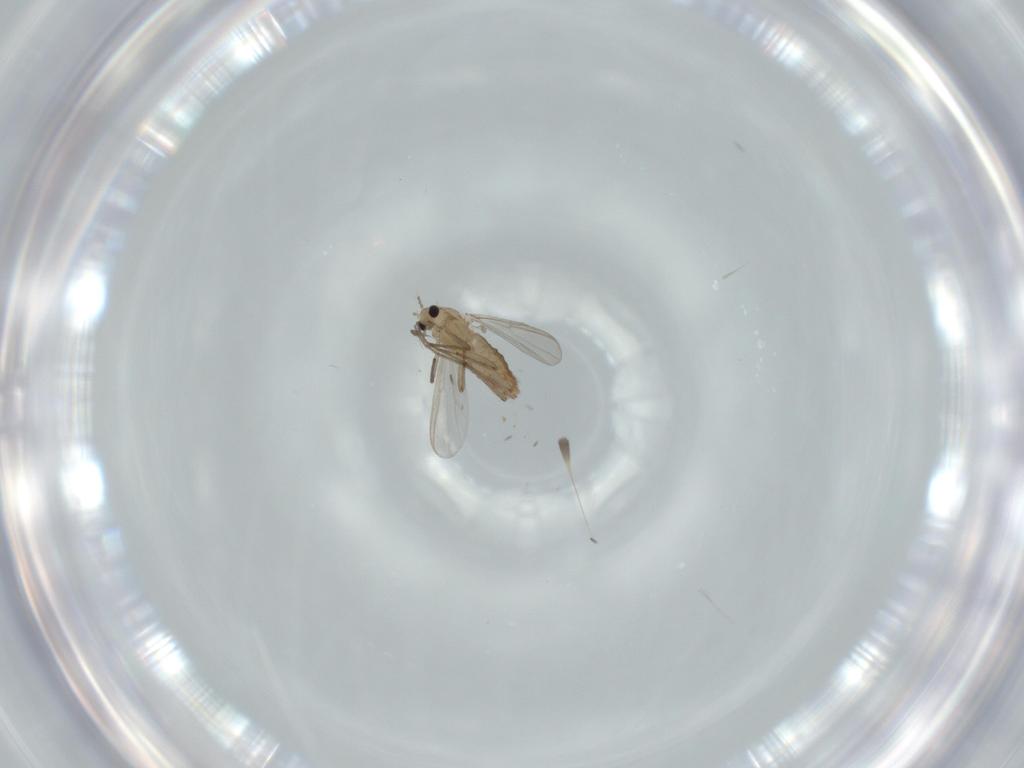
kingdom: Animalia
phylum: Arthropoda
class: Insecta
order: Diptera
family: Chironomidae
